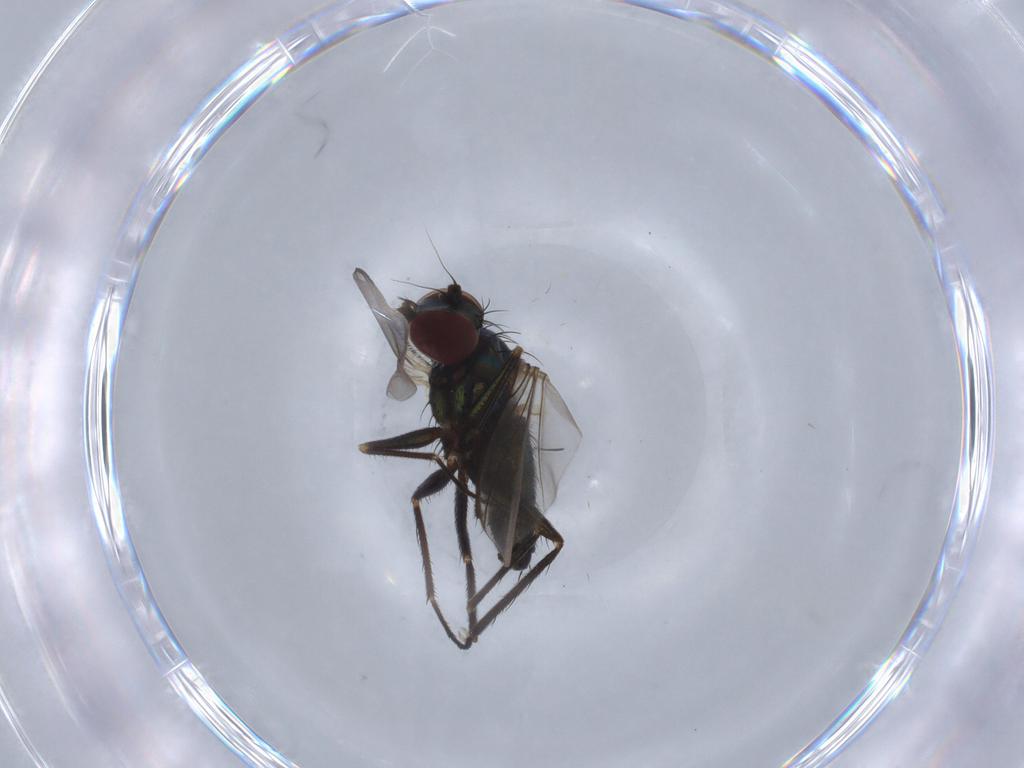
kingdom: Animalia
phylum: Arthropoda
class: Insecta
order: Diptera
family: Dolichopodidae
